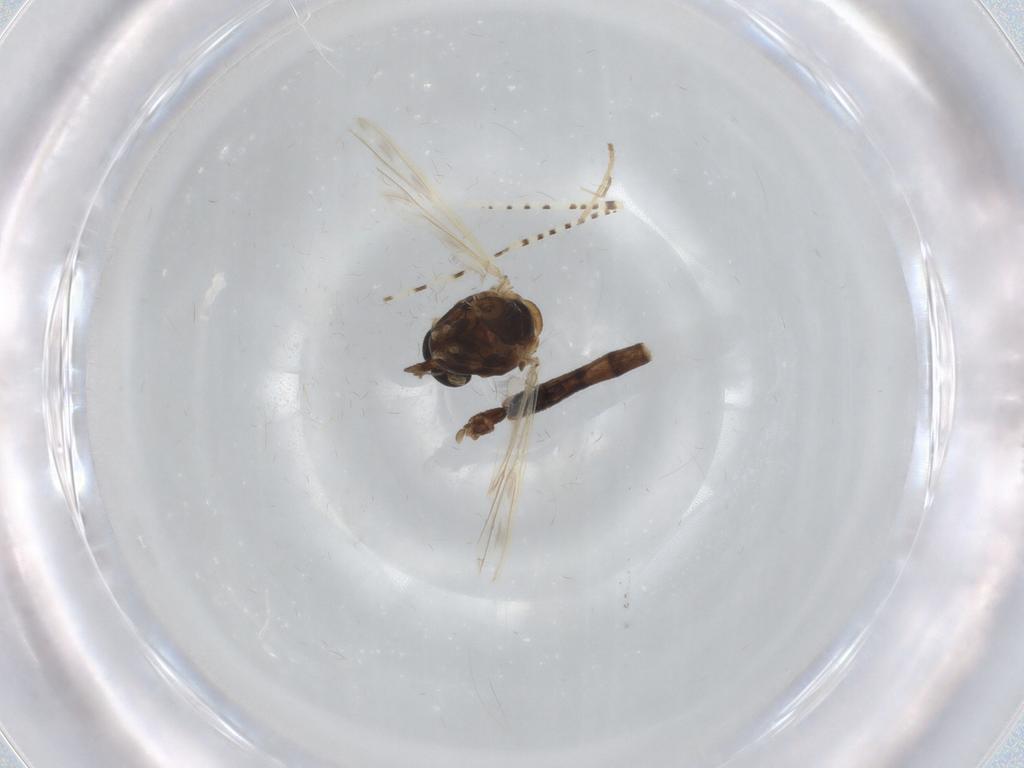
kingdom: Animalia
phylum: Arthropoda
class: Insecta
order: Diptera
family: Chironomidae
